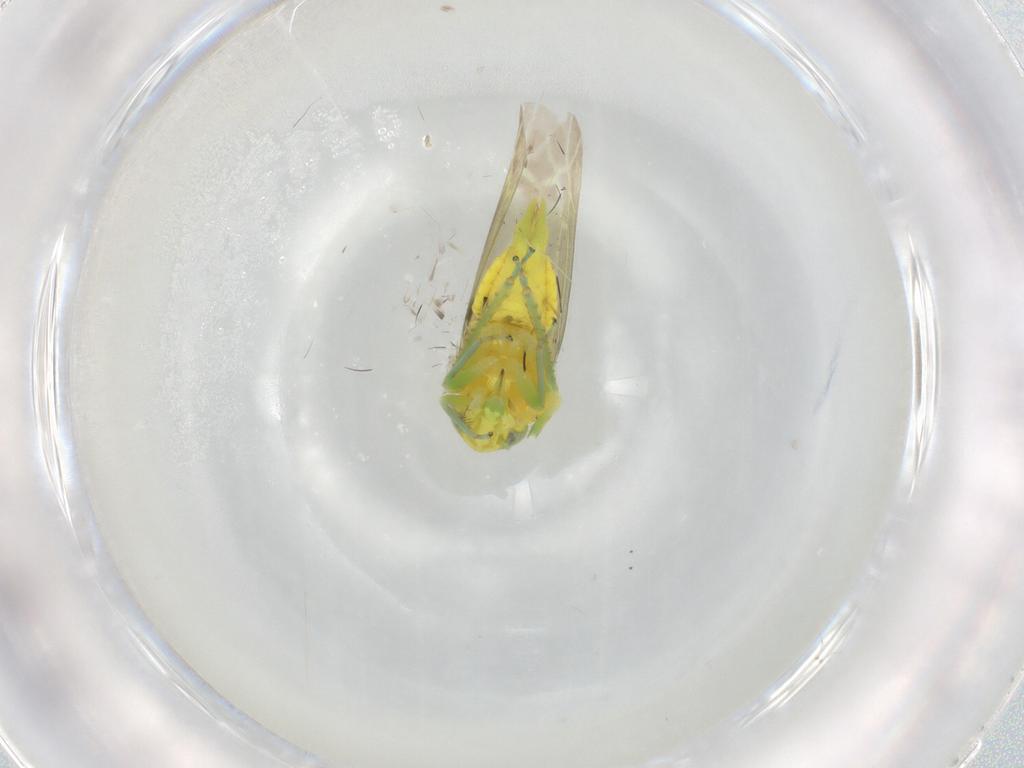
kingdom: Animalia
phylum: Arthropoda
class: Insecta
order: Hemiptera
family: Cicadellidae
